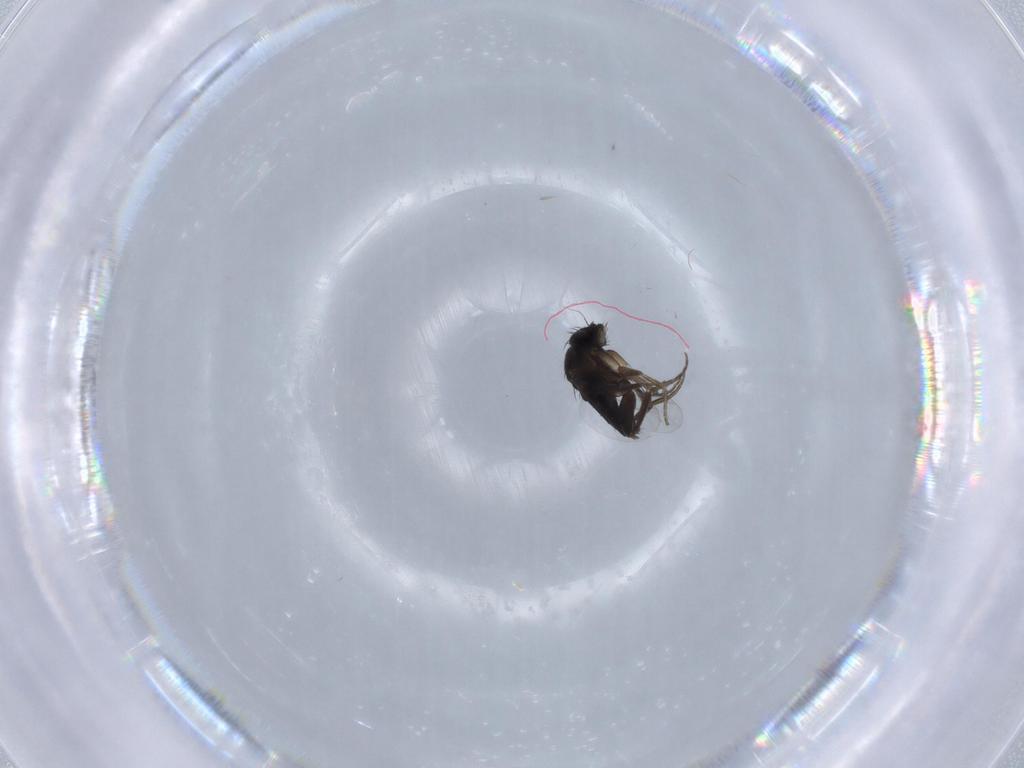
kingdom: Animalia
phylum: Arthropoda
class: Insecta
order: Diptera
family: Phoridae
